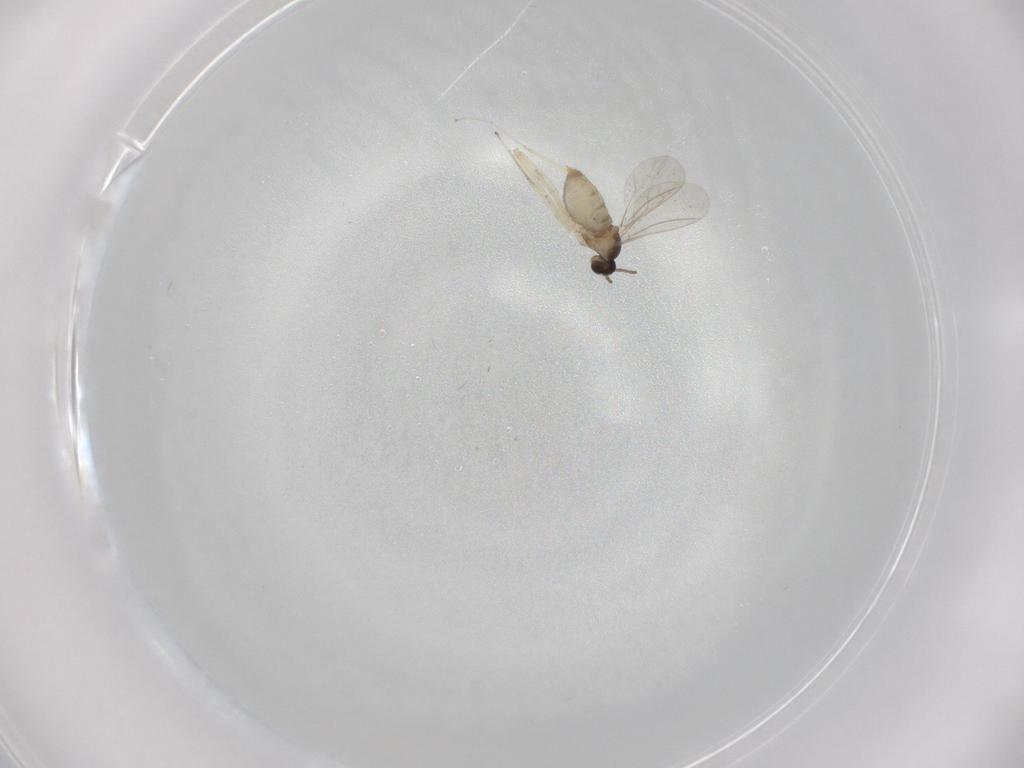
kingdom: Animalia
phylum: Arthropoda
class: Insecta
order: Diptera
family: Cecidomyiidae
